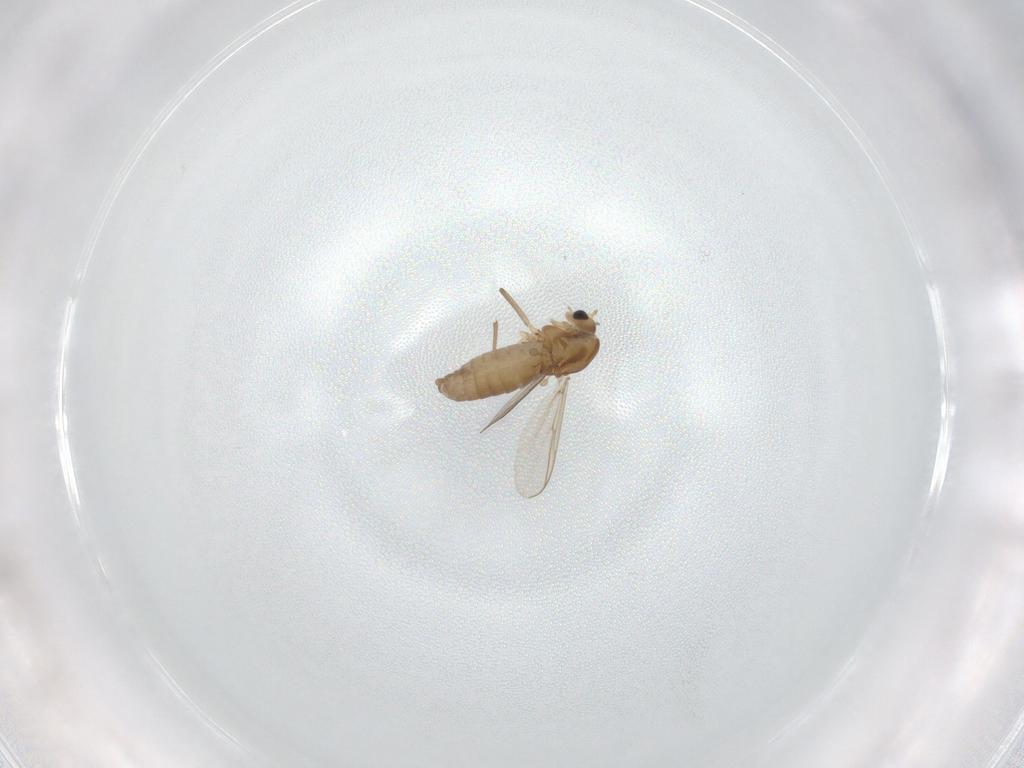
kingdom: Animalia
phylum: Arthropoda
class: Insecta
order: Diptera
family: Chironomidae
